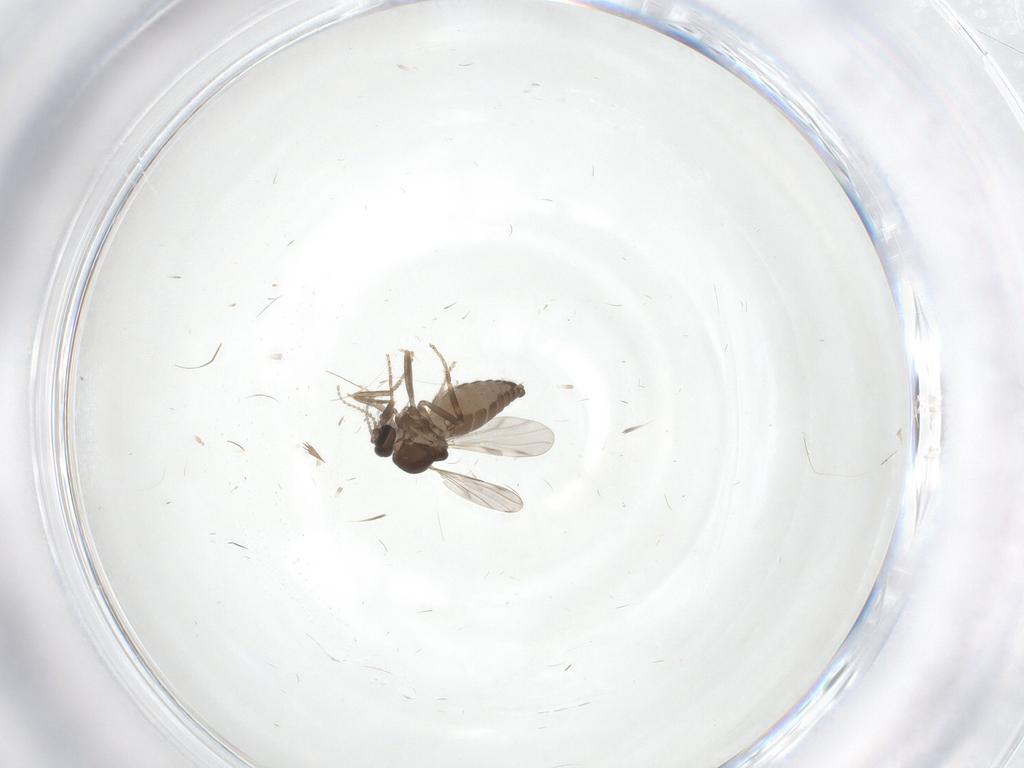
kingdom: Animalia
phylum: Arthropoda
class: Insecta
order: Diptera
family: Ceratopogonidae
